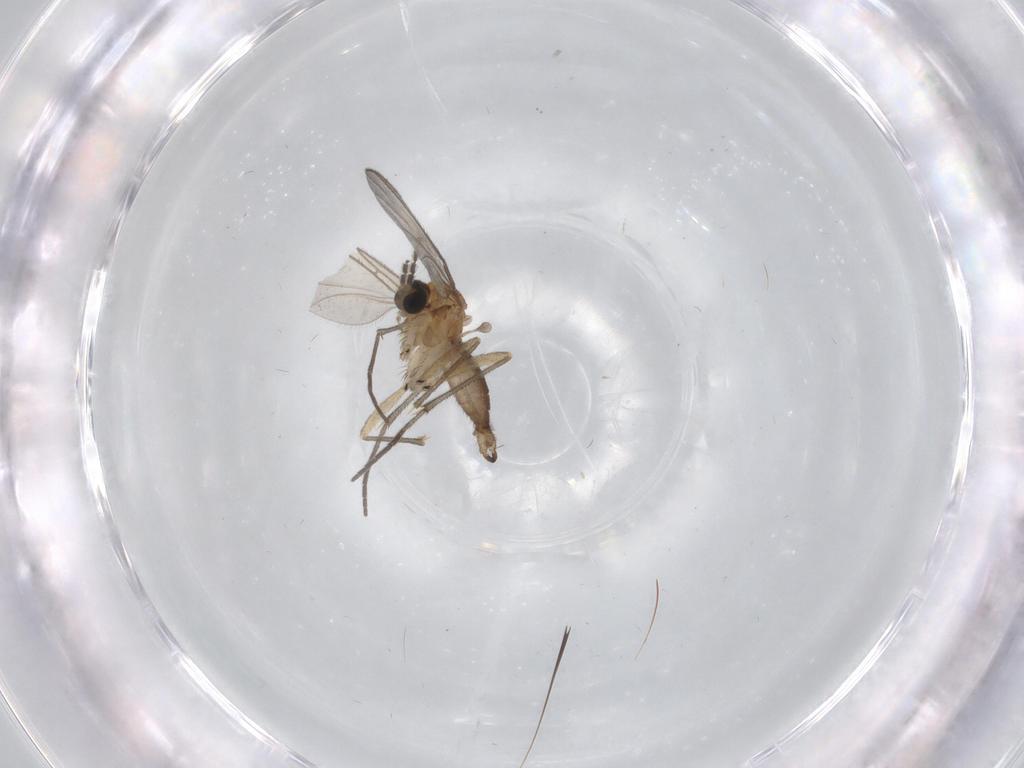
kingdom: Animalia
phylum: Arthropoda
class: Insecta
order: Diptera
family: Sciaridae
